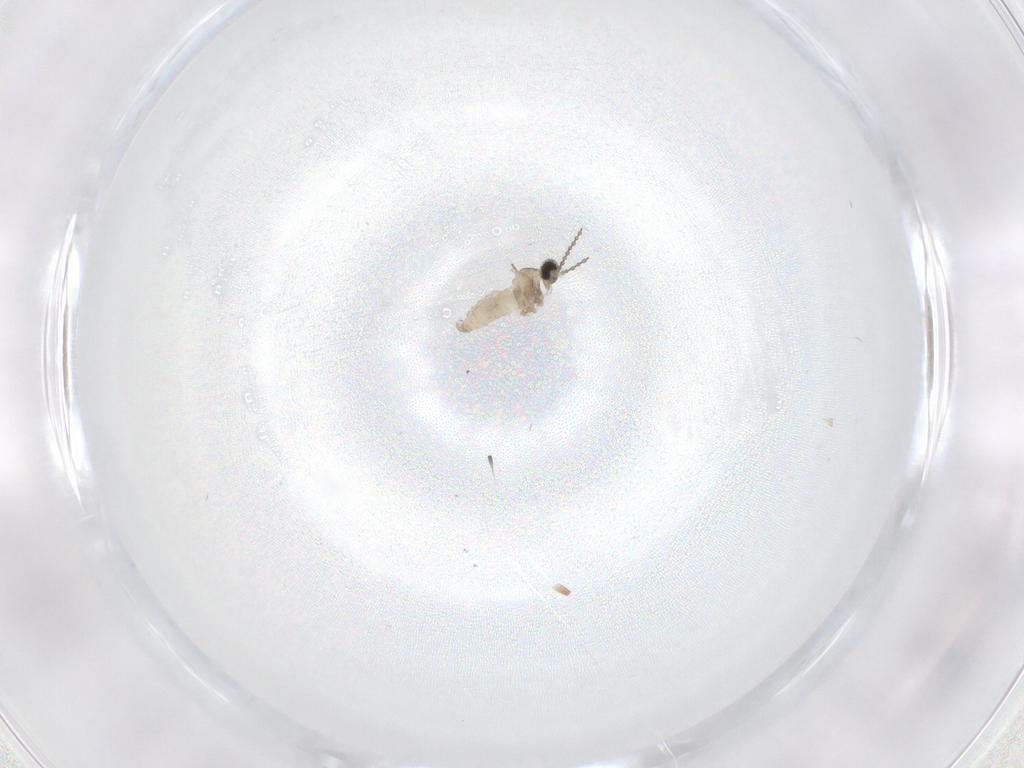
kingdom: Animalia
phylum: Arthropoda
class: Insecta
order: Diptera
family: Cecidomyiidae
